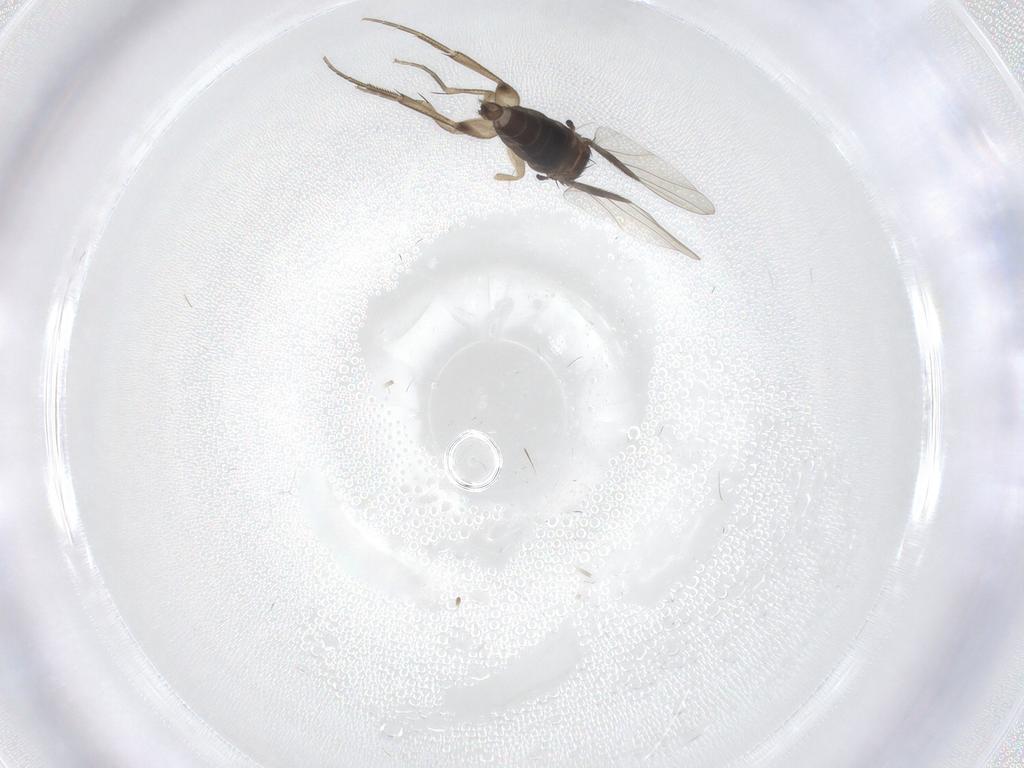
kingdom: Animalia
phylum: Arthropoda
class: Insecta
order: Diptera
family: Phoridae
